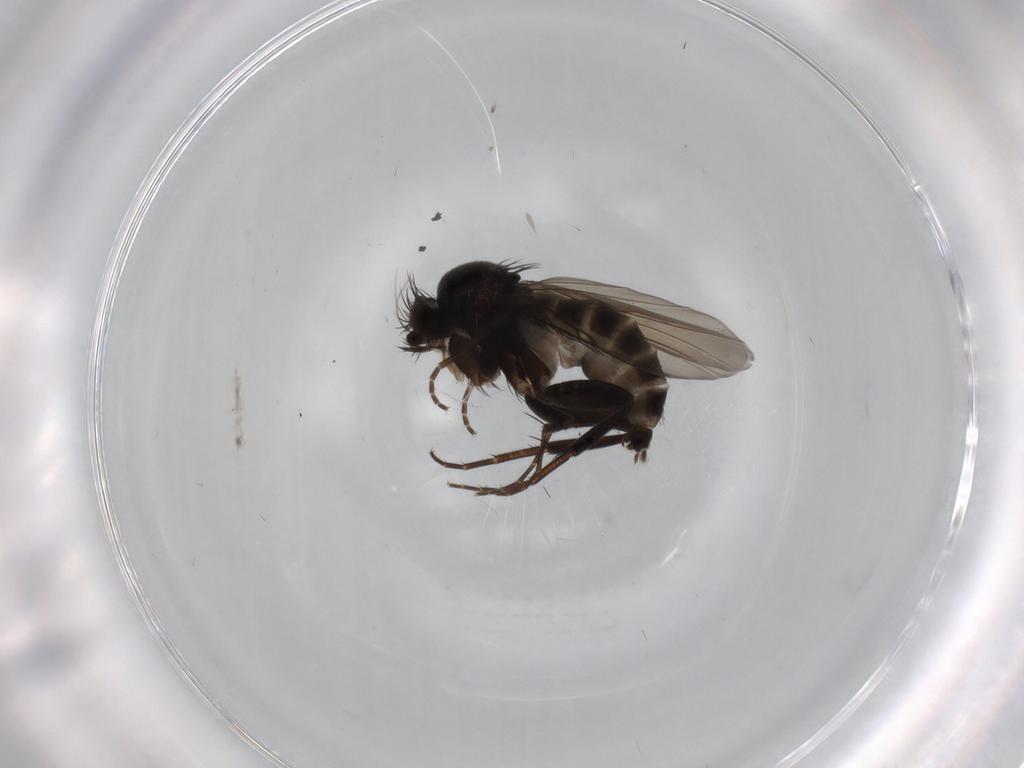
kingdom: Animalia
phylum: Arthropoda
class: Insecta
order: Diptera
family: Phoridae
